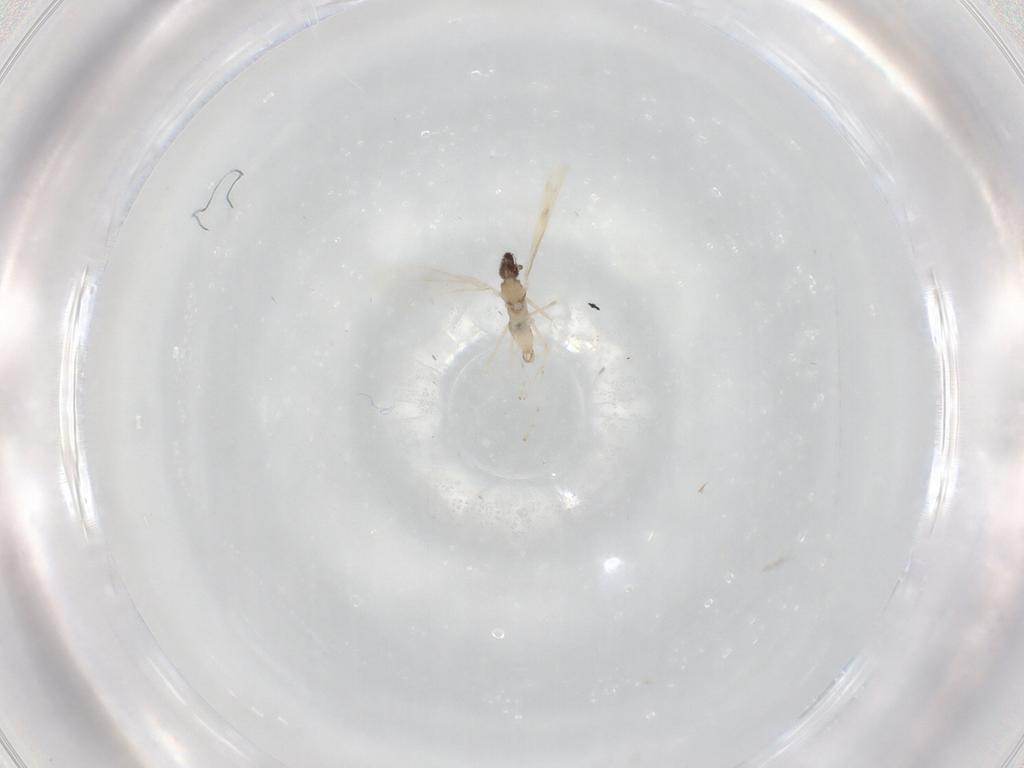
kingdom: Animalia
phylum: Arthropoda
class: Insecta
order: Diptera
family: Cecidomyiidae
